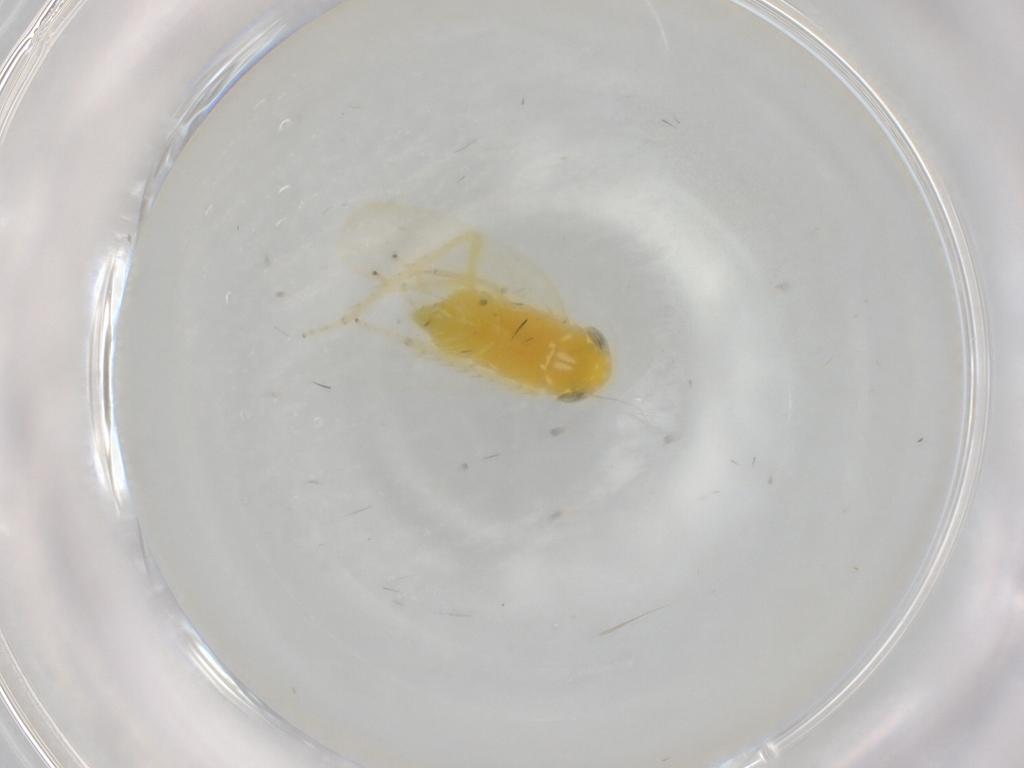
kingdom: Animalia
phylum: Arthropoda
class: Insecta
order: Hemiptera
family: Cicadellidae
